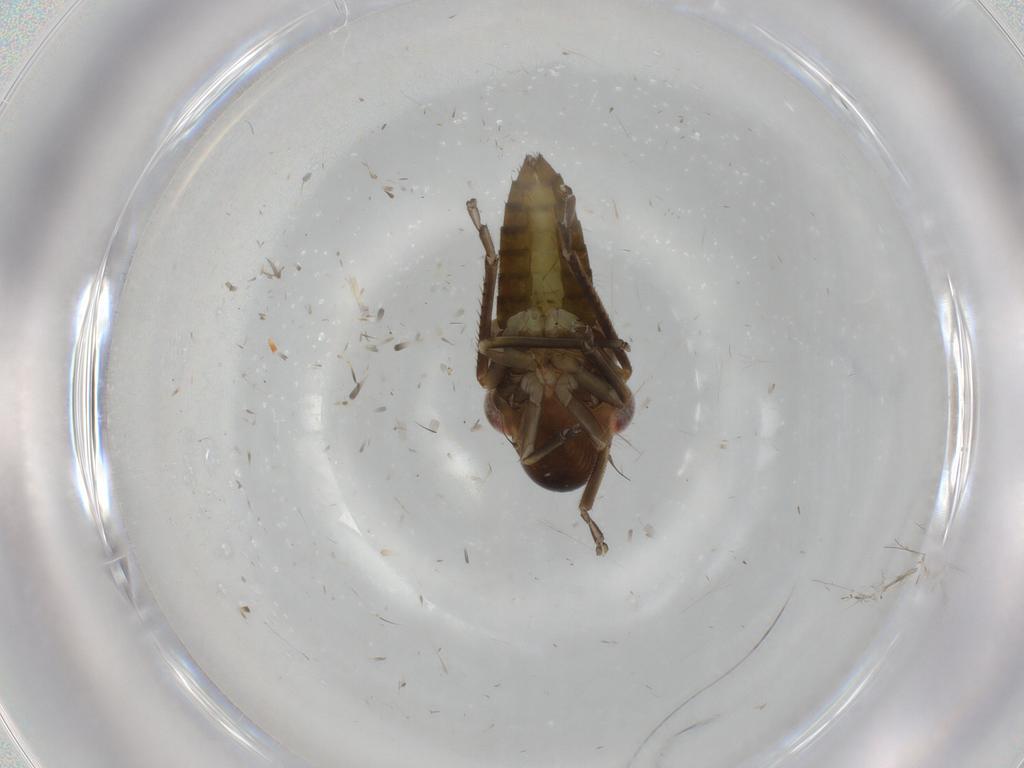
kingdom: Animalia
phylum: Arthropoda
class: Insecta
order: Hemiptera
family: Cicadellidae
